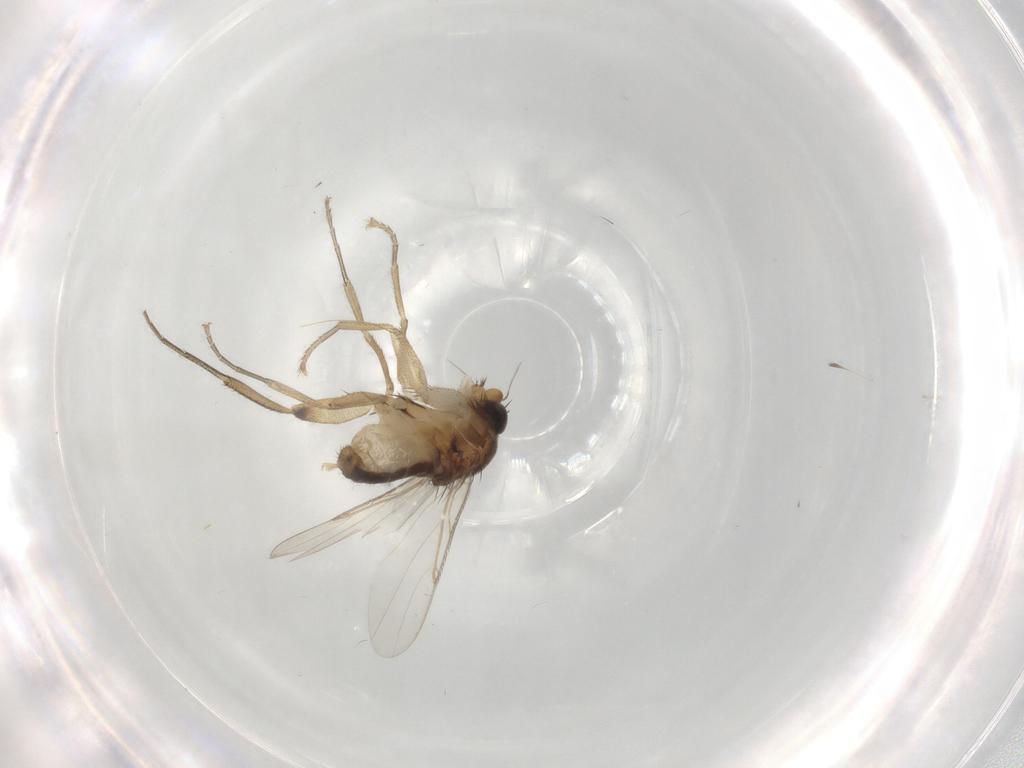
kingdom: Animalia
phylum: Arthropoda
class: Insecta
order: Diptera
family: Phoridae
